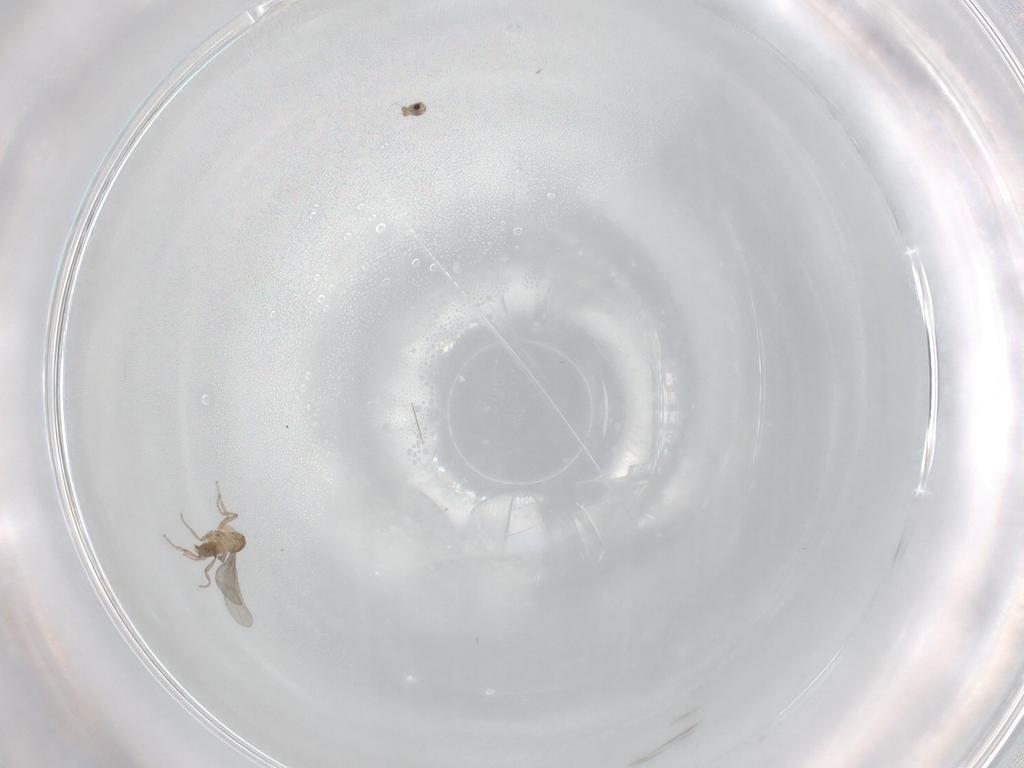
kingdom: Animalia
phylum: Arthropoda
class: Insecta
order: Diptera
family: Phoridae
